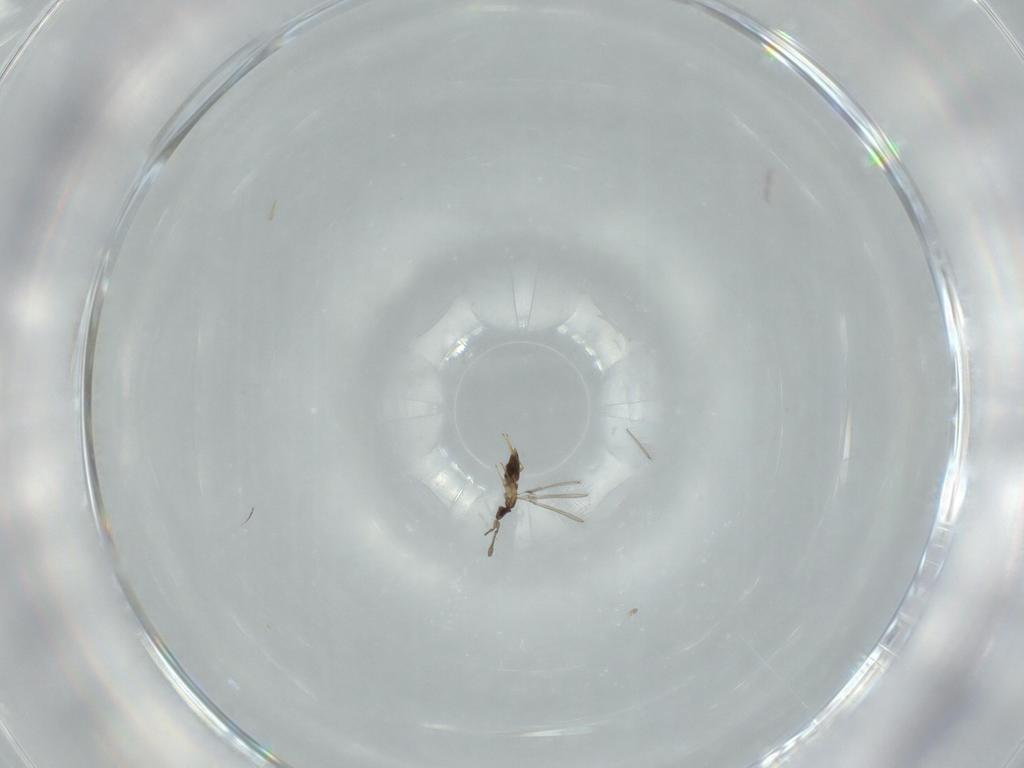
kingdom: Animalia
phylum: Arthropoda
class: Insecta
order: Hymenoptera
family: Mymaridae
